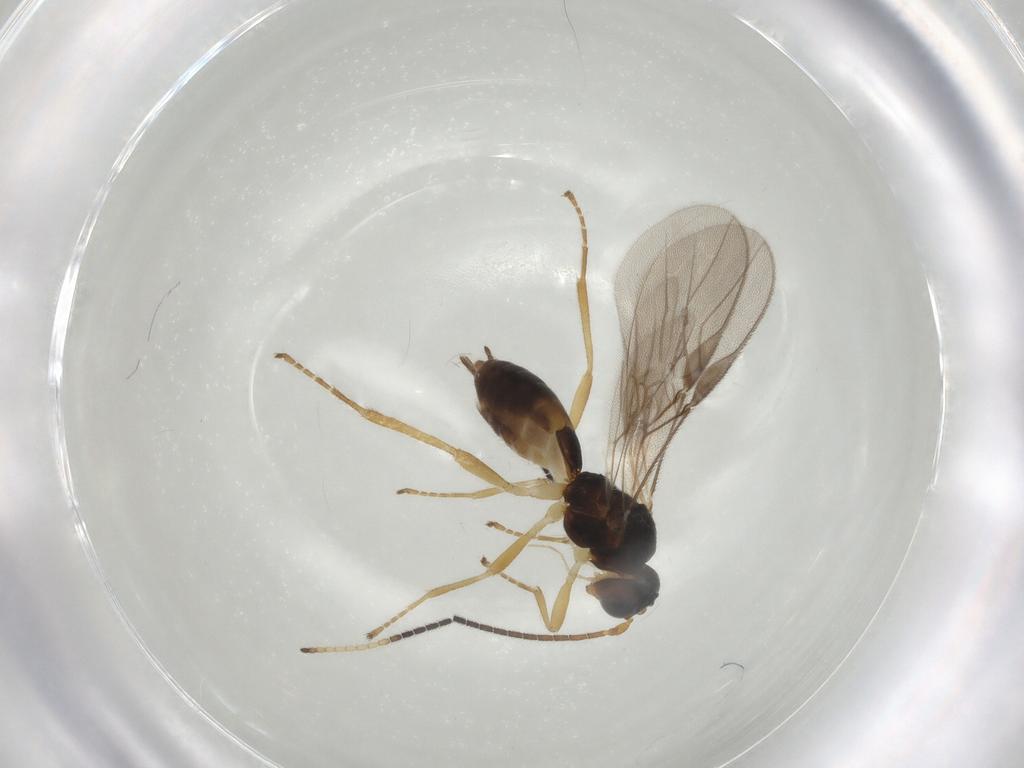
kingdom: Animalia
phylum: Arthropoda
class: Insecta
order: Hymenoptera
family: Braconidae
